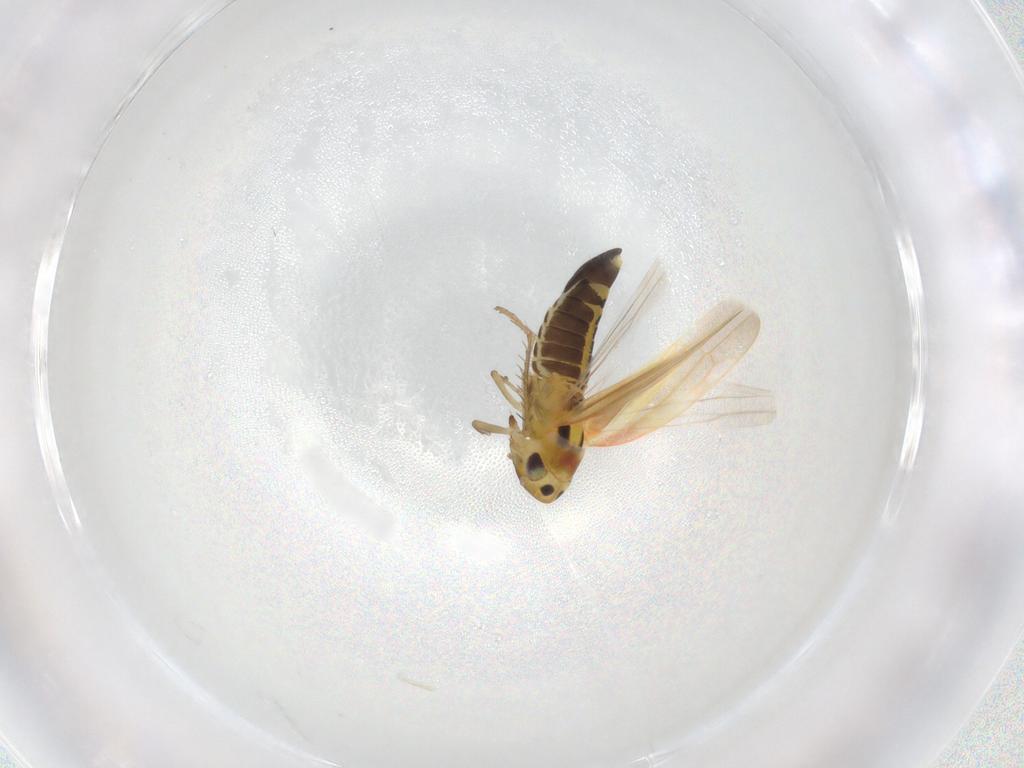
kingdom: Animalia
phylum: Arthropoda
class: Insecta
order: Hemiptera
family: Cicadellidae
